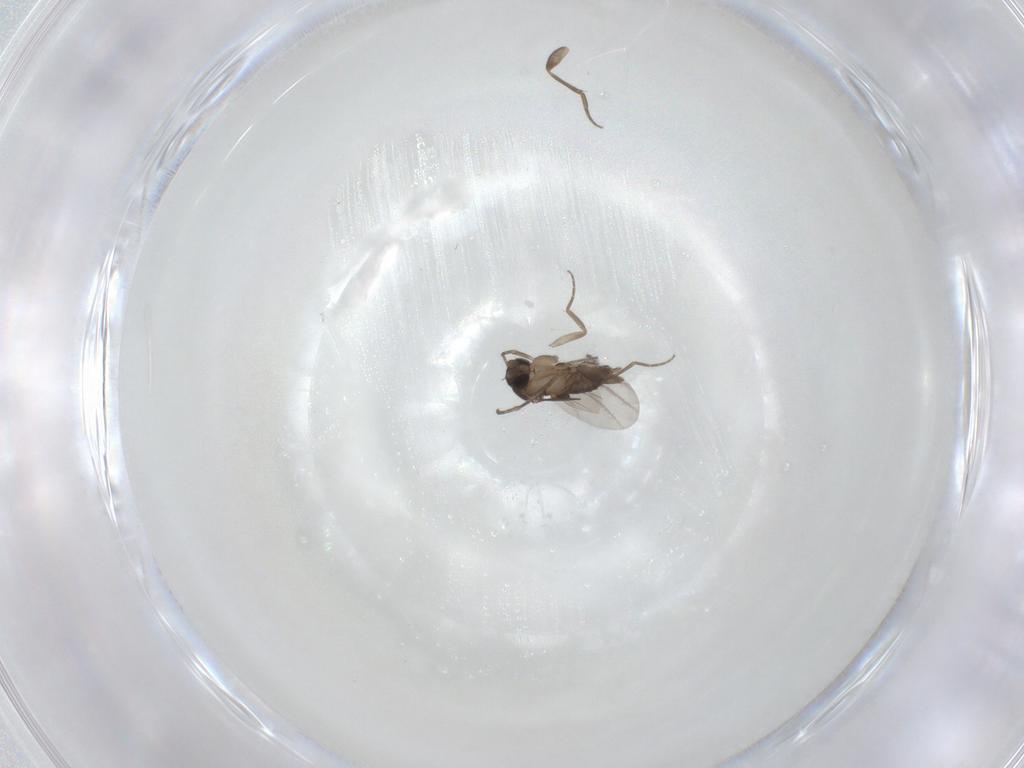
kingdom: Animalia
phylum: Arthropoda
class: Insecta
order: Diptera
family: Phoridae
